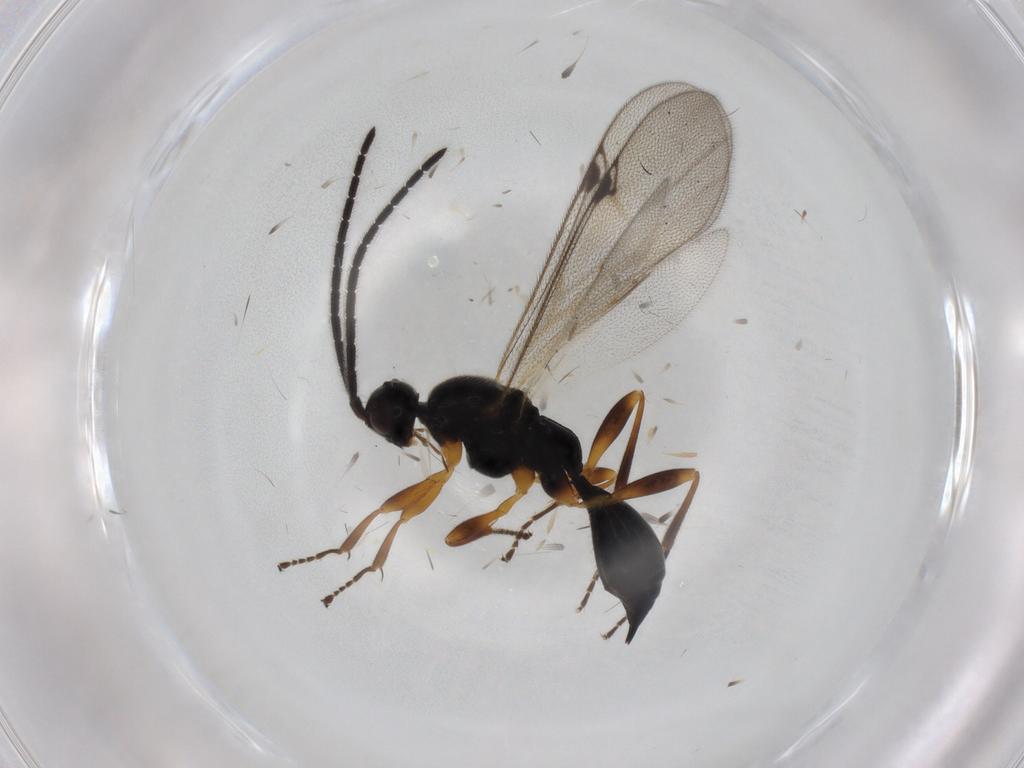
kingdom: Animalia
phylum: Arthropoda
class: Insecta
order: Hymenoptera
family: Proctotrupidae
